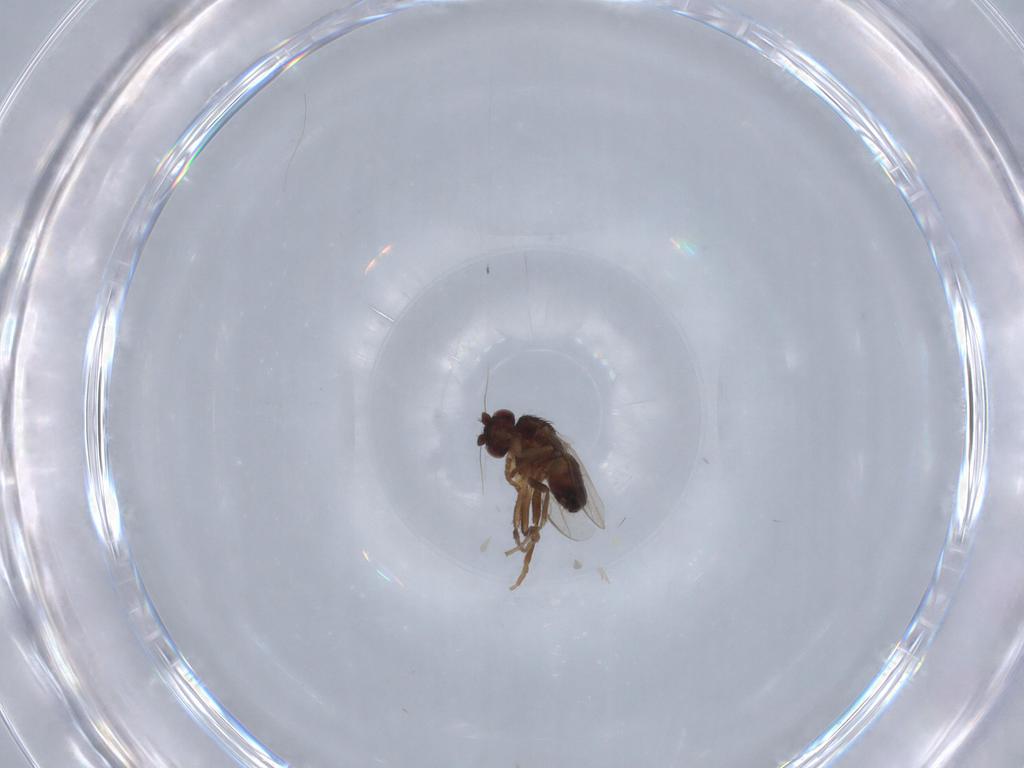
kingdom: Animalia
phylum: Arthropoda
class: Insecta
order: Diptera
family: Sphaeroceridae
